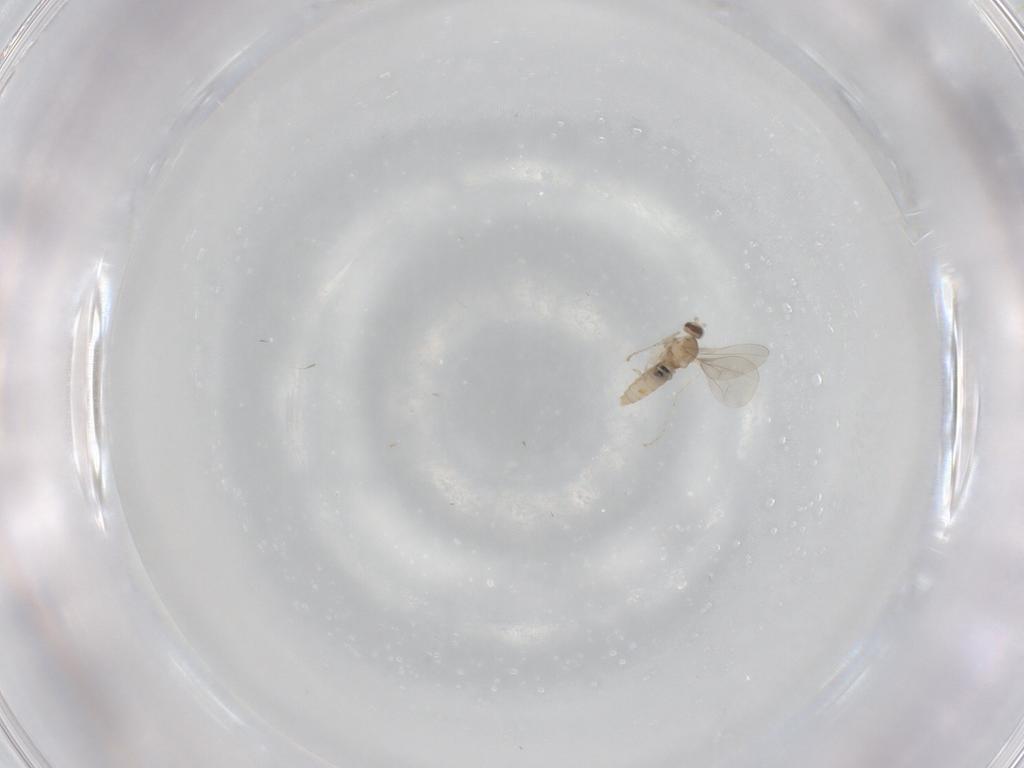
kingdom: Animalia
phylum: Arthropoda
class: Insecta
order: Diptera
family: Cecidomyiidae
